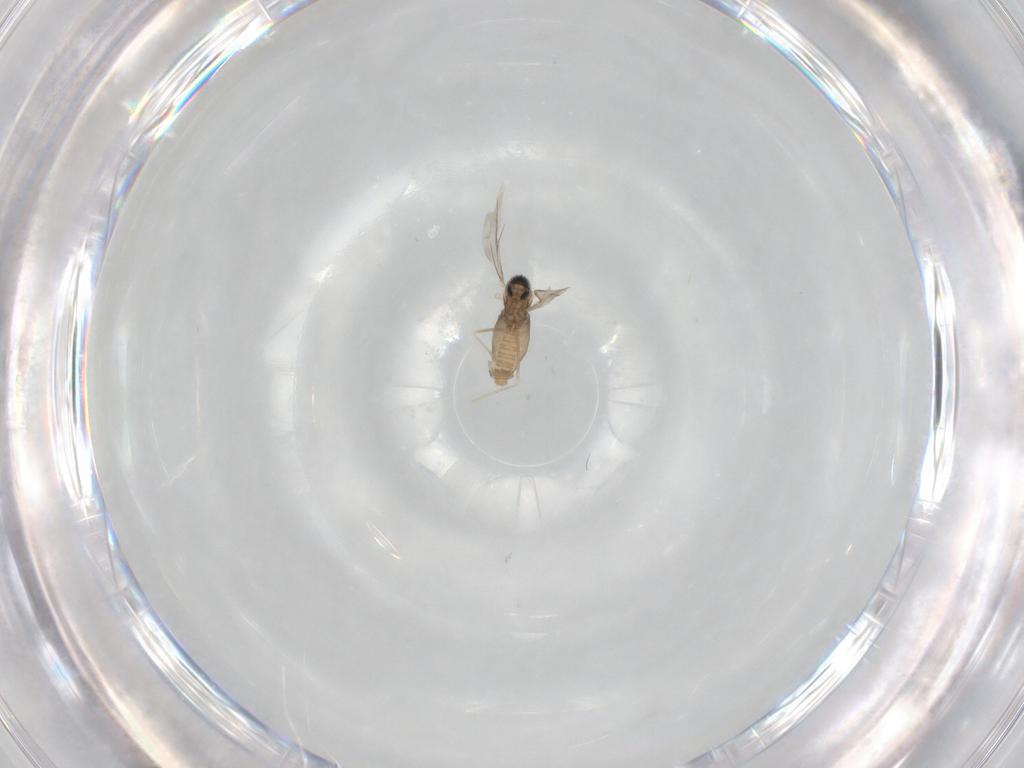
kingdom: Animalia
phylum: Arthropoda
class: Insecta
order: Diptera
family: Cecidomyiidae
